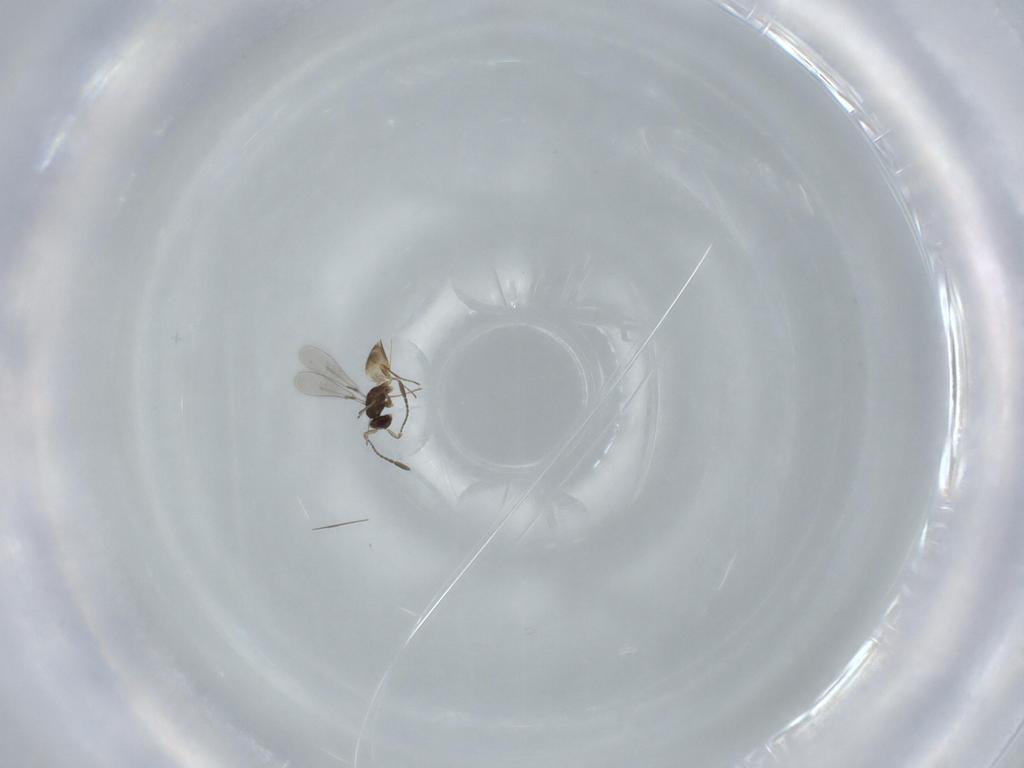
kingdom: Animalia
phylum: Arthropoda
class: Insecta
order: Hymenoptera
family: Mymaridae
